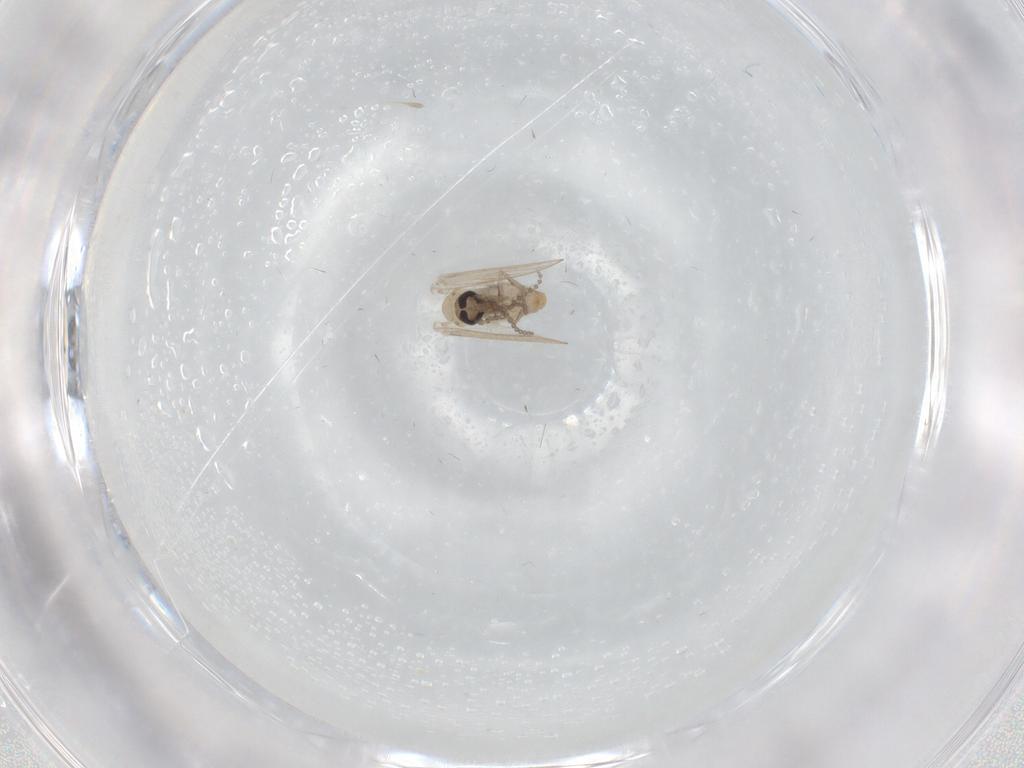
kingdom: Animalia
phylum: Arthropoda
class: Insecta
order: Diptera
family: Psychodidae
